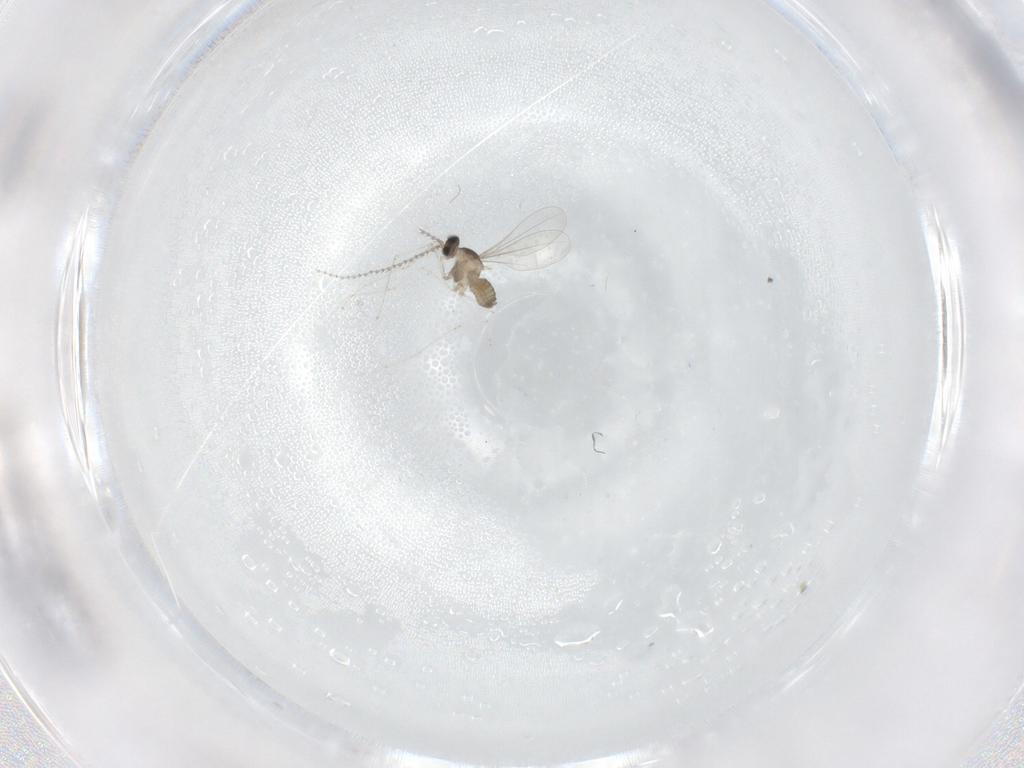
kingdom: Animalia
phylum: Arthropoda
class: Insecta
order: Diptera
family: Cecidomyiidae
